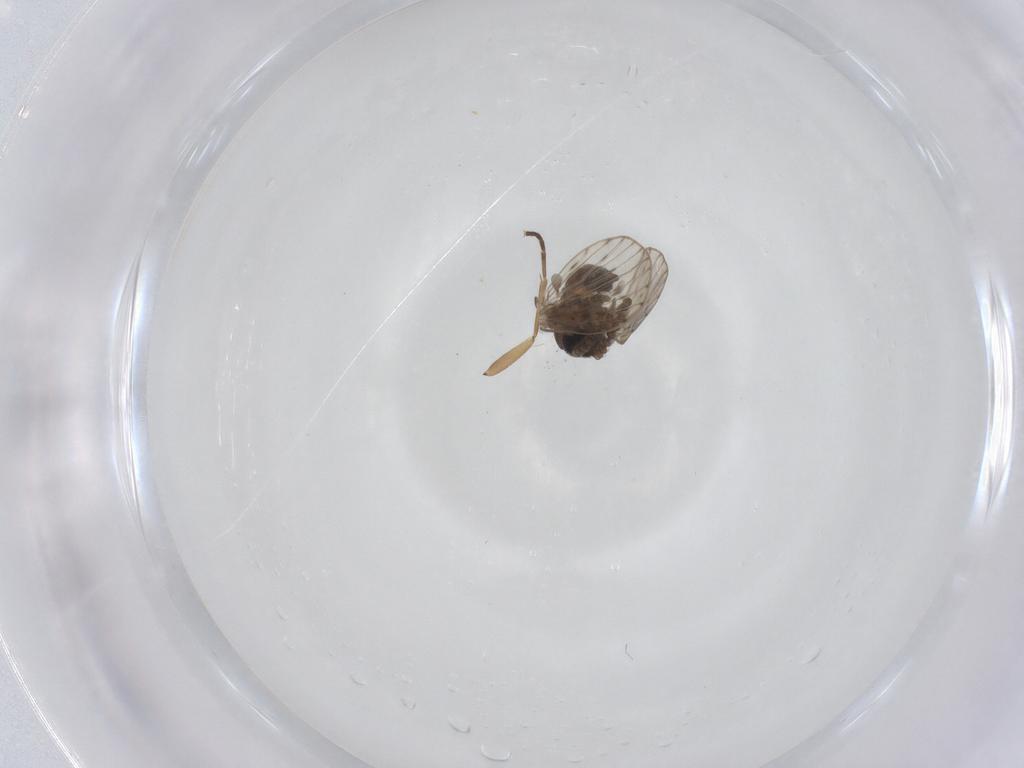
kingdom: Animalia
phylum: Arthropoda
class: Insecta
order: Diptera
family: Psychodidae
